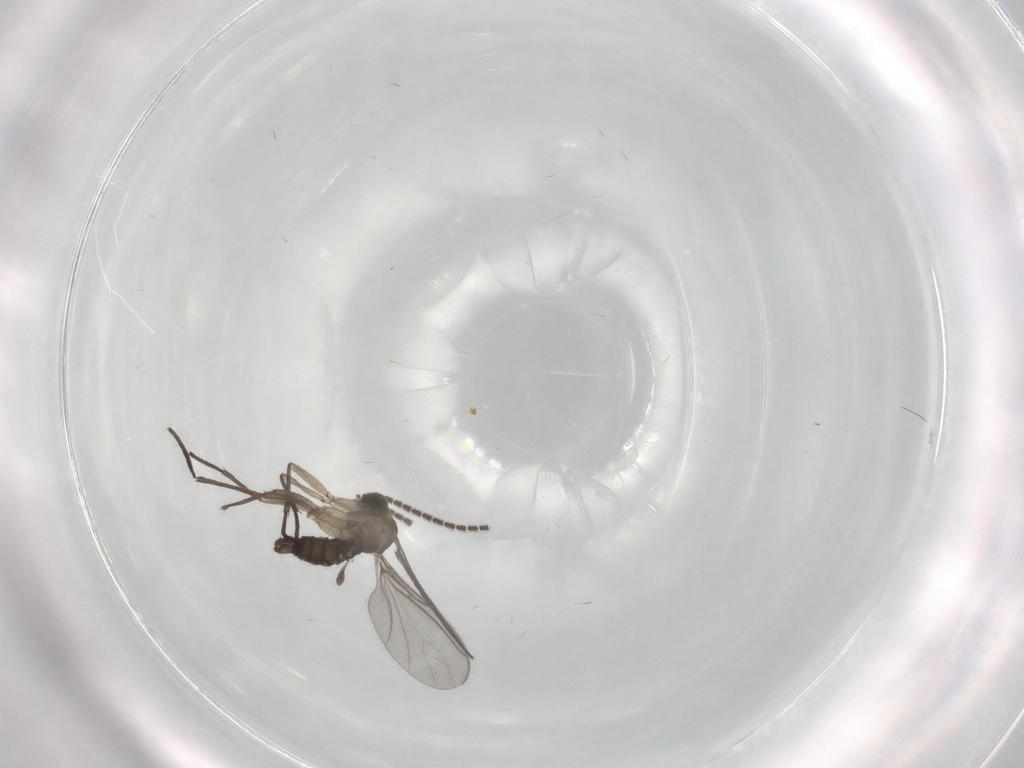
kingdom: Animalia
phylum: Arthropoda
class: Insecta
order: Diptera
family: Sciaridae
